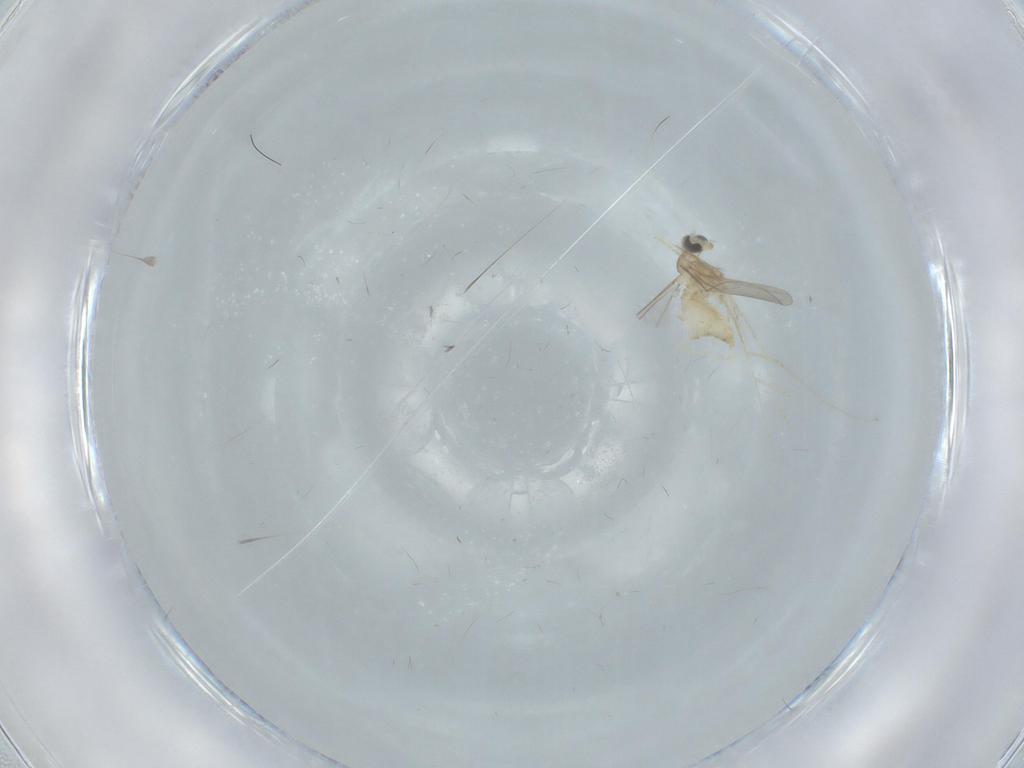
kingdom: Animalia
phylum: Arthropoda
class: Insecta
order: Diptera
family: Cecidomyiidae
